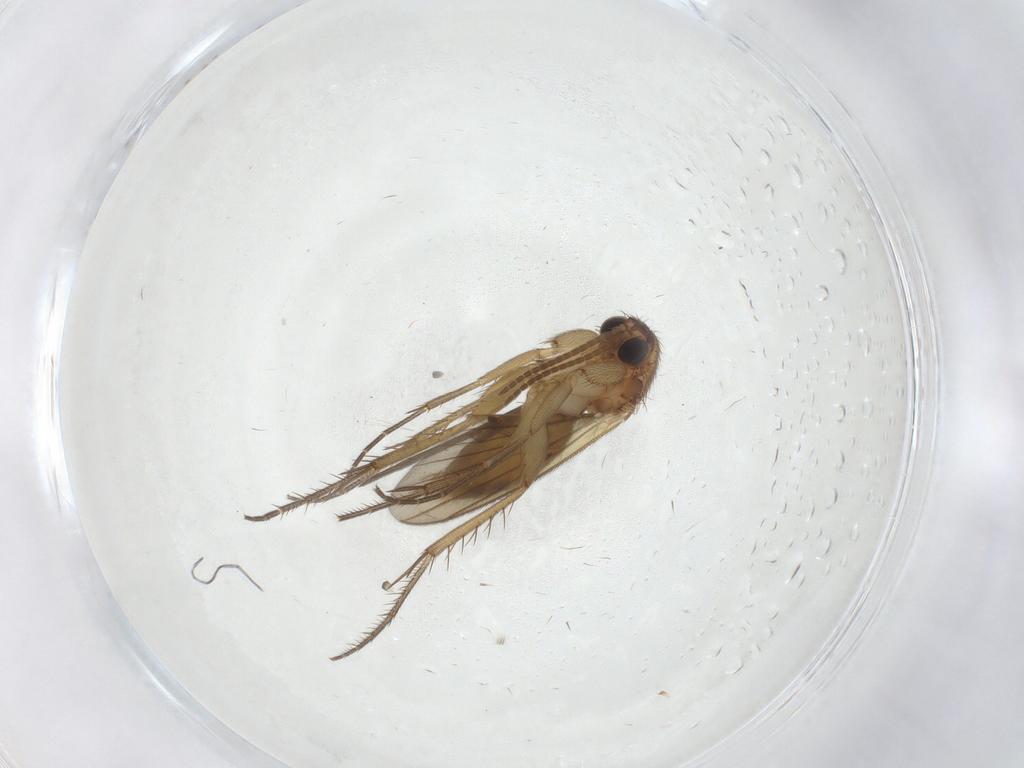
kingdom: Animalia
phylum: Arthropoda
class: Insecta
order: Diptera
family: Mycetophilidae
